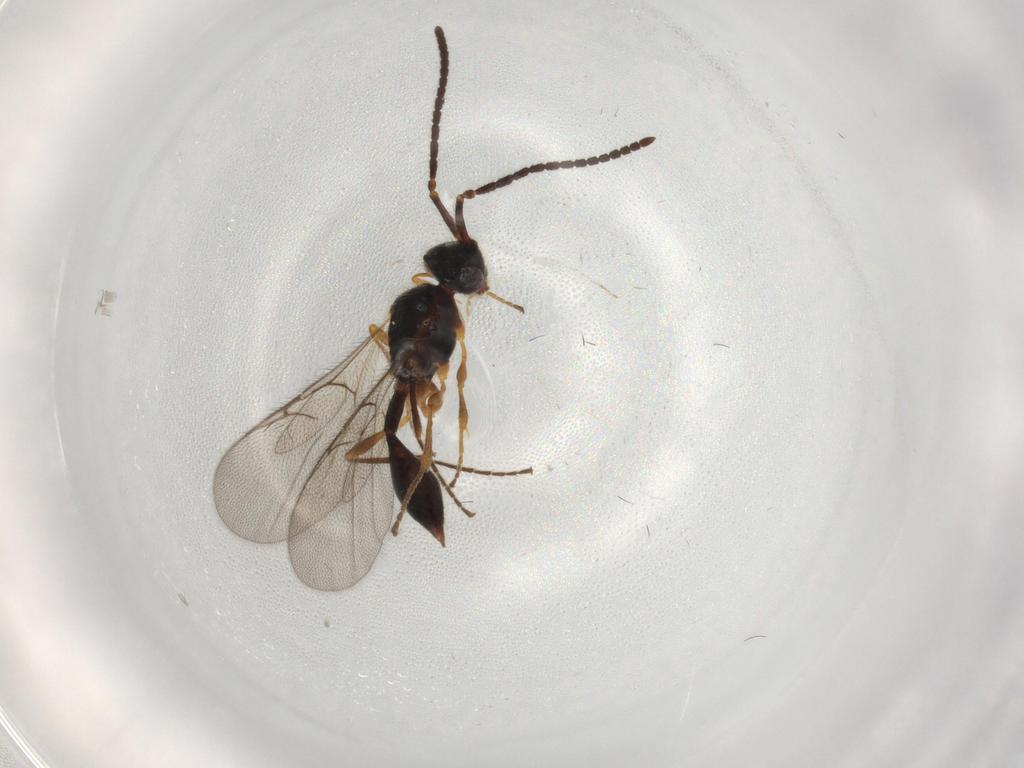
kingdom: Animalia
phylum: Arthropoda
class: Insecta
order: Hymenoptera
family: Diapriidae
